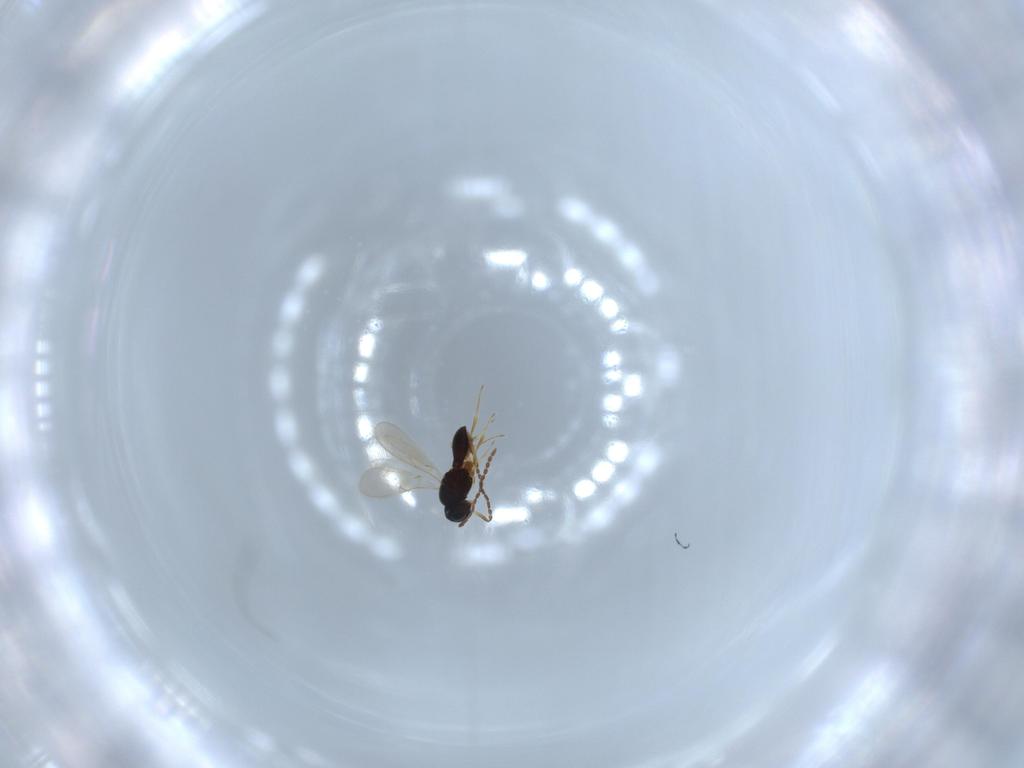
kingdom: Animalia
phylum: Arthropoda
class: Insecta
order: Hymenoptera
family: Scelionidae
